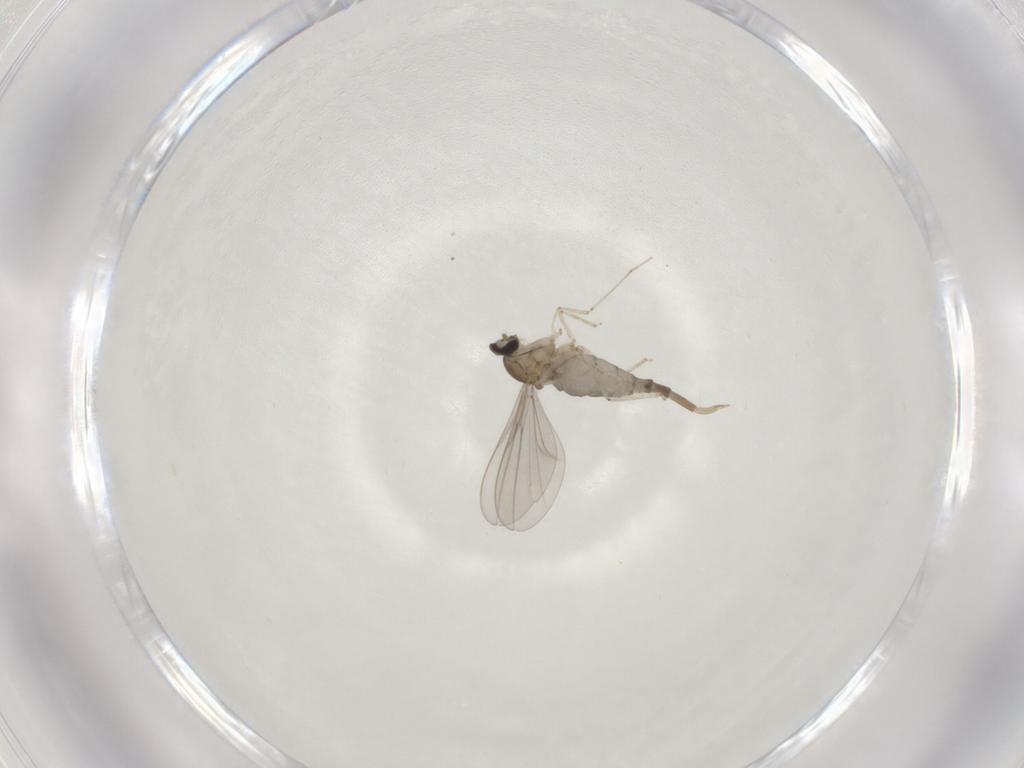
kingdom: Animalia
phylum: Arthropoda
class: Insecta
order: Diptera
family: Cecidomyiidae
